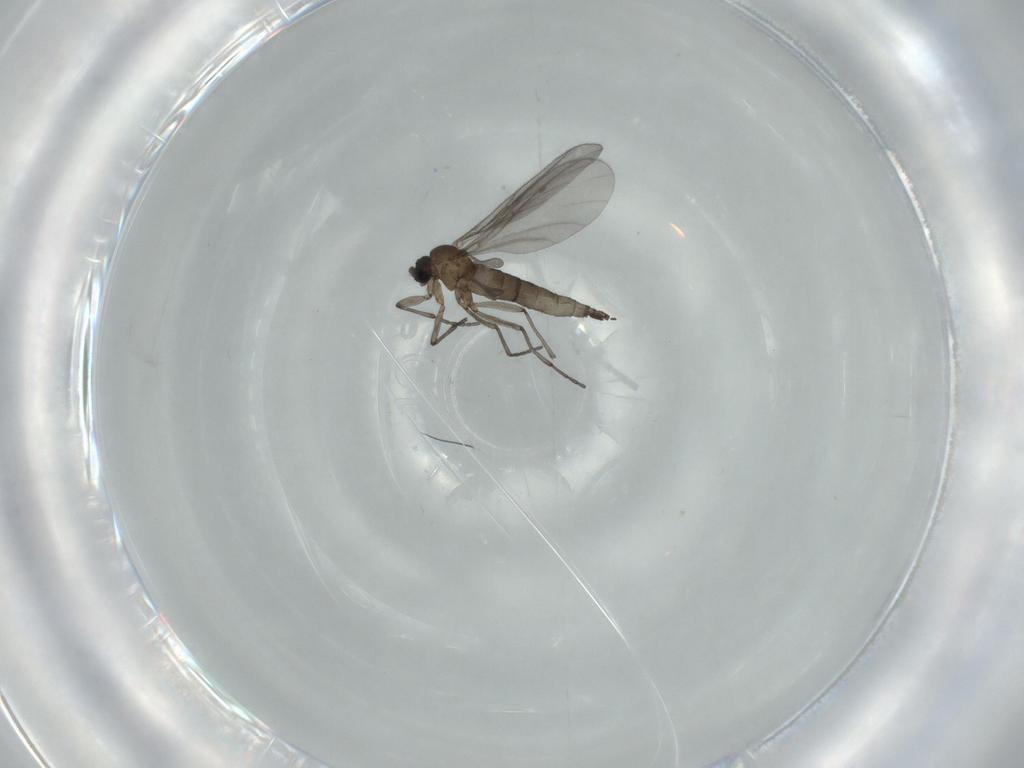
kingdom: Animalia
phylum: Arthropoda
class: Insecta
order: Diptera
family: Sciaridae
